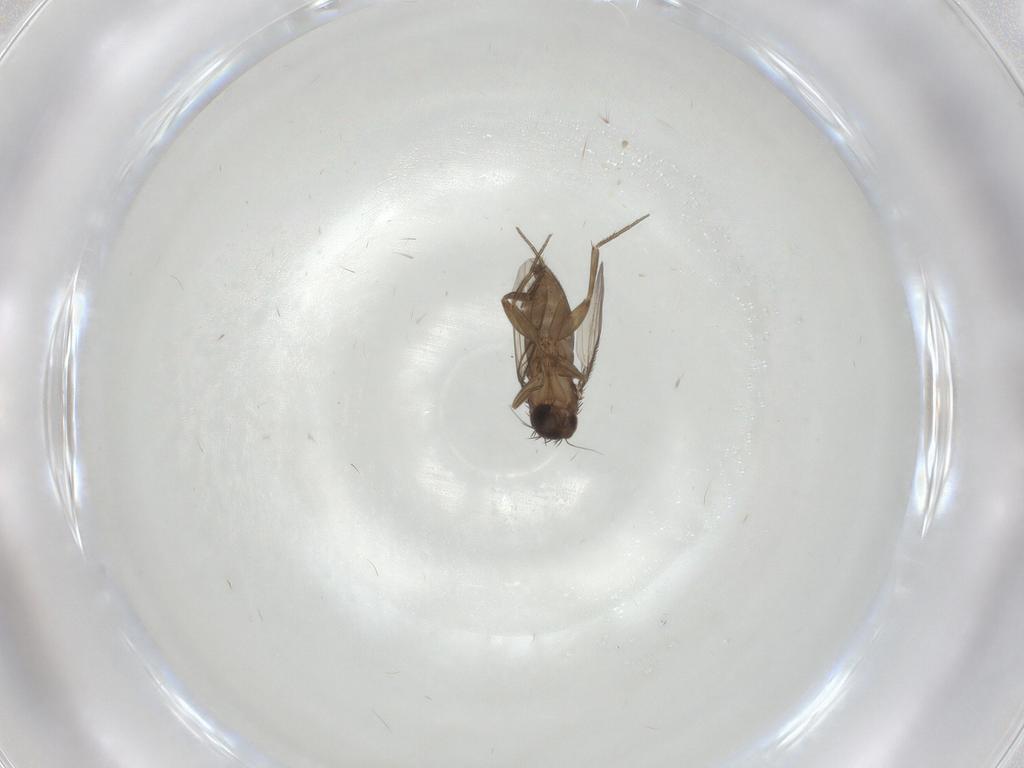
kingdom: Animalia
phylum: Arthropoda
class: Insecta
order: Diptera
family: Phoridae
